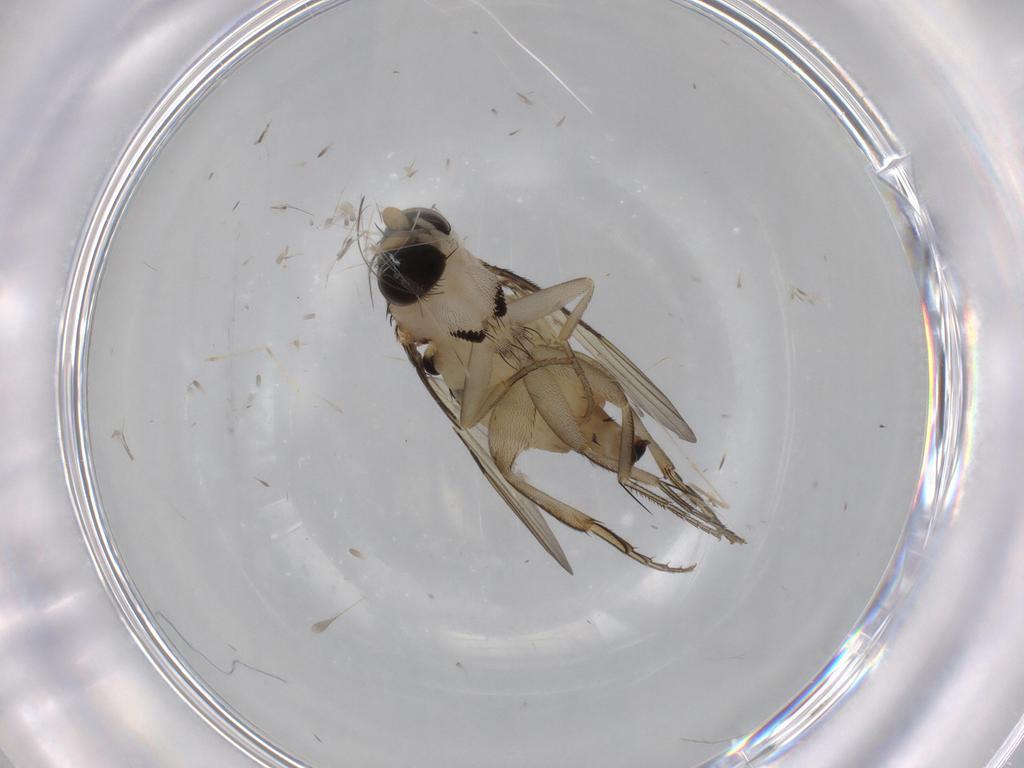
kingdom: Animalia
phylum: Arthropoda
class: Insecta
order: Diptera
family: Phoridae
